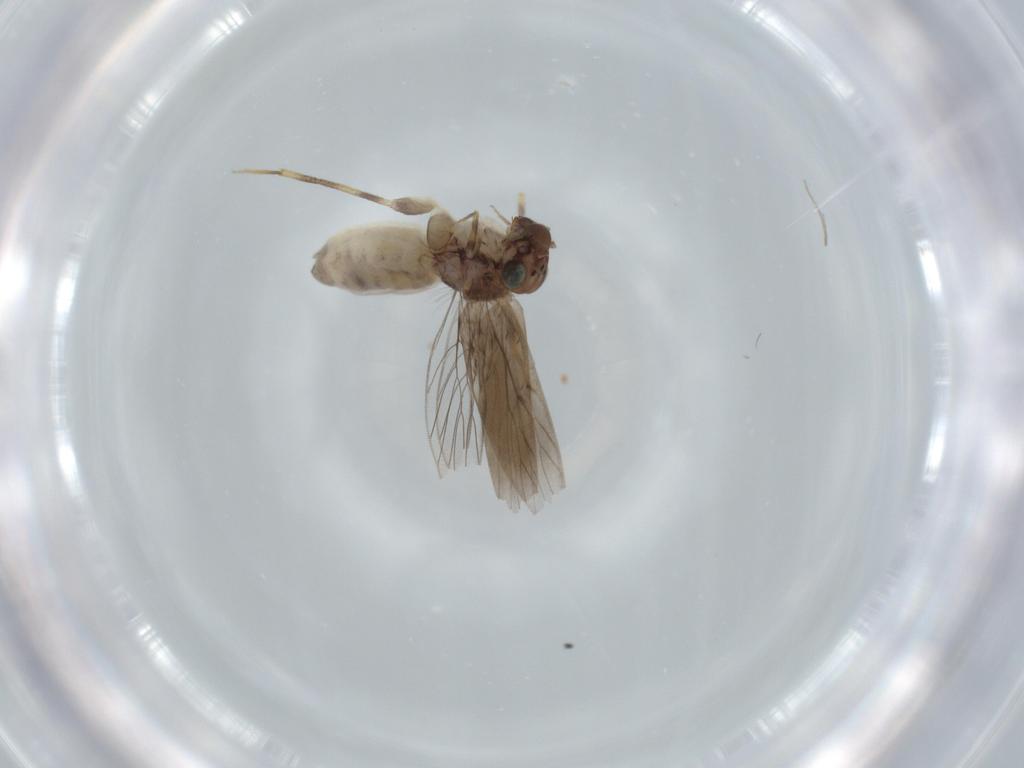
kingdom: Animalia
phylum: Arthropoda
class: Insecta
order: Psocodea
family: Lepidopsocidae
